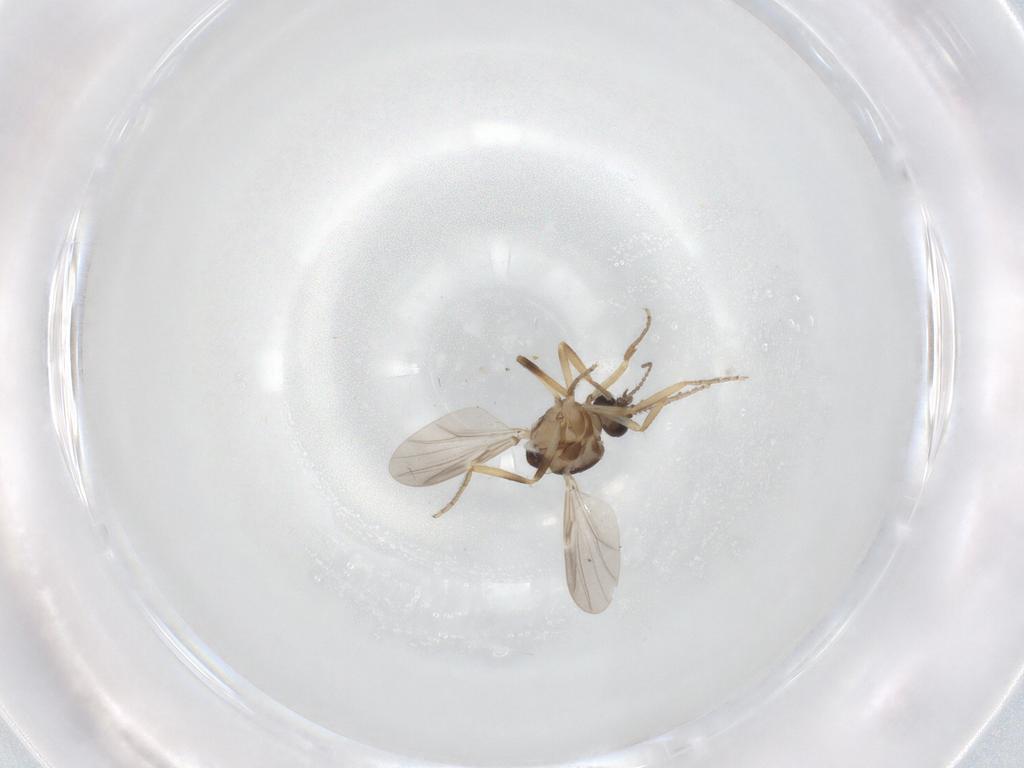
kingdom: Animalia
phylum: Arthropoda
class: Insecta
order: Diptera
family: Ceratopogonidae
